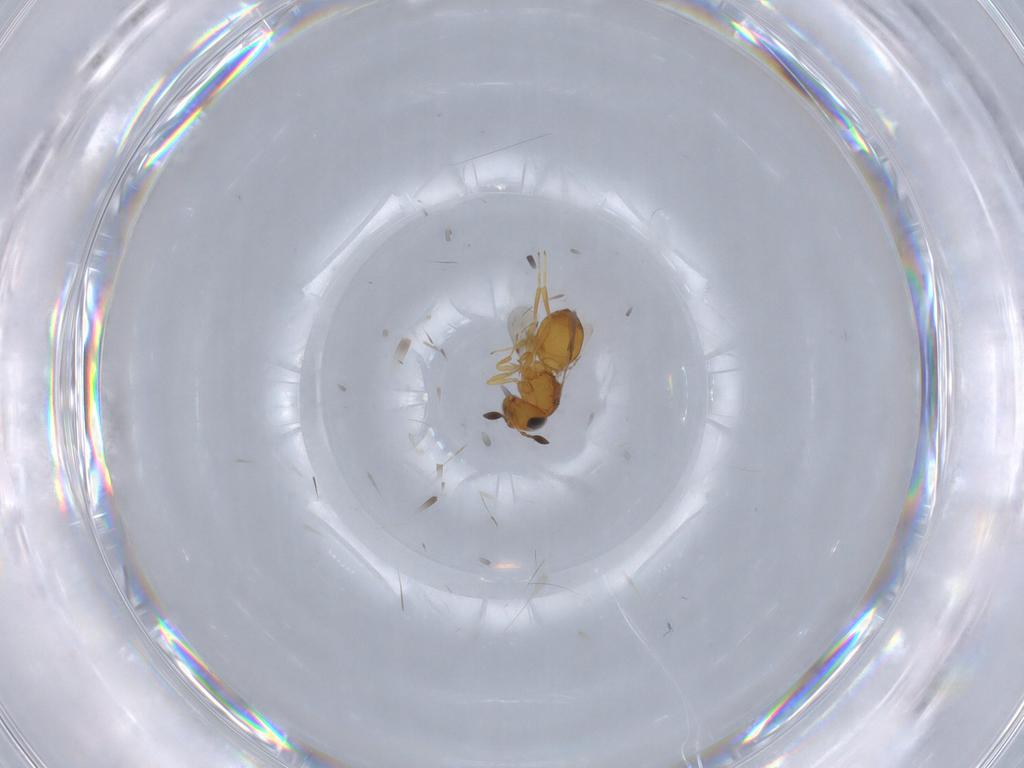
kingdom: Animalia
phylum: Arthropoda
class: Insecta
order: Hymenoptera
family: Scelionidae
